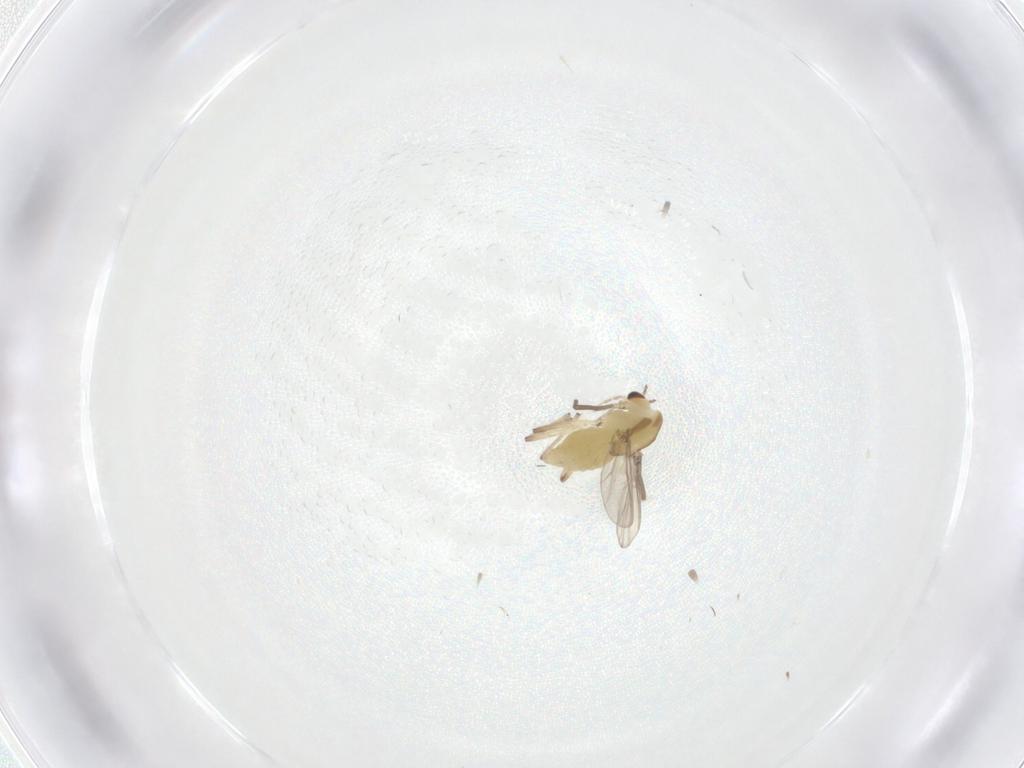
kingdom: Animalia
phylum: Arthropoda
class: Insecta
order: Diptera
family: Chironomidae
